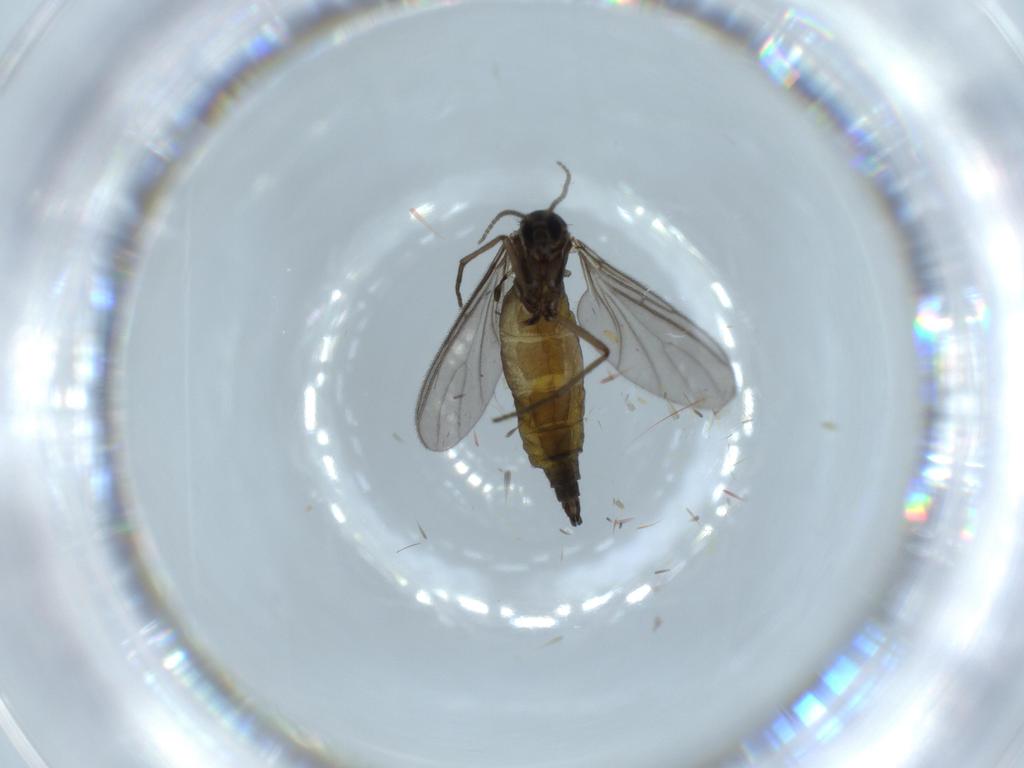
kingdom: Animalia
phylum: Arthropoda
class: Insecta
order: Diptera
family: Sciaridae
